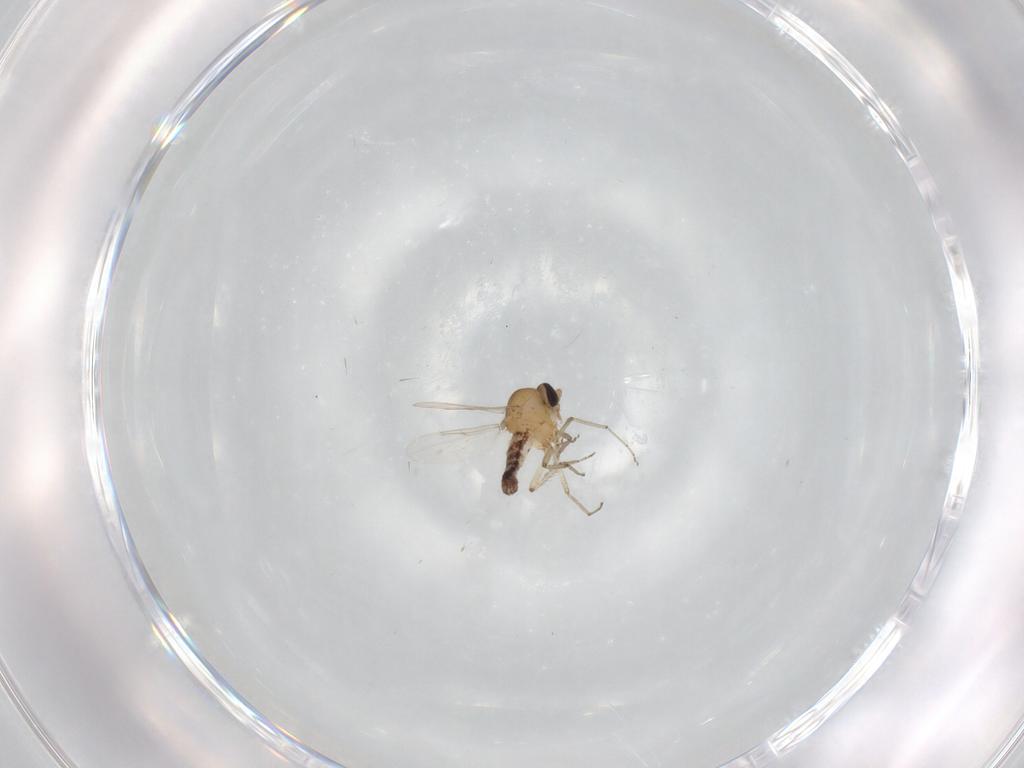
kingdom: Animalia
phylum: Arthropoda
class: Insecta
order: Diptera
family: Ceratopogonidae
